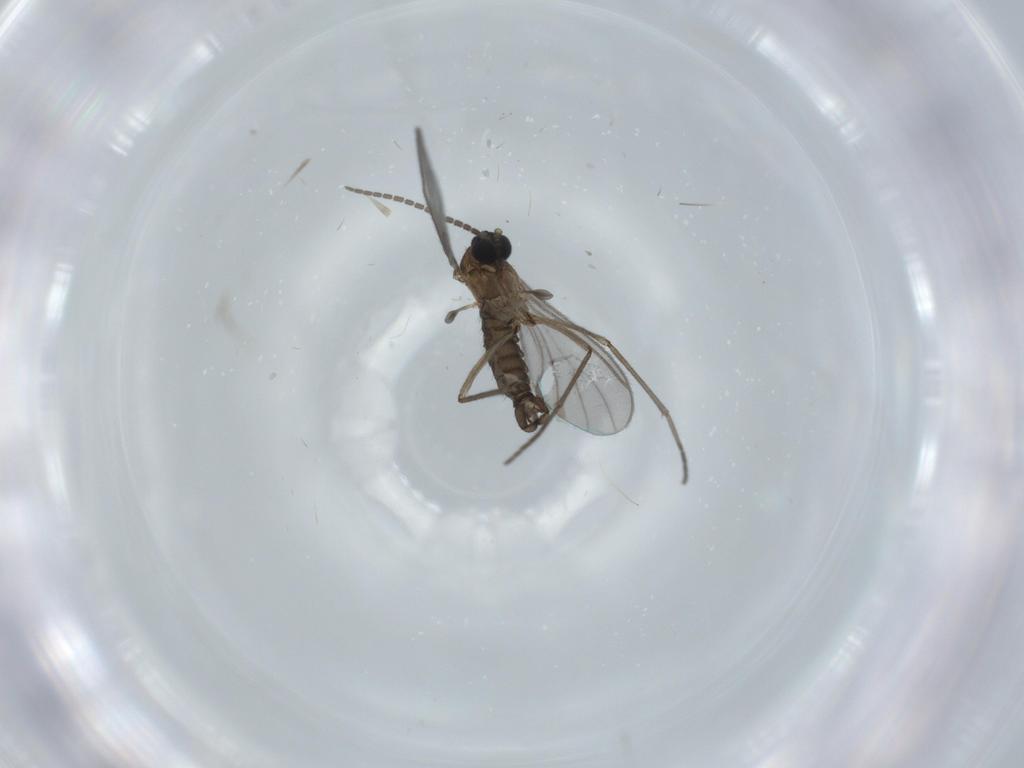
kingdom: Animalia
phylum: Arthropoda
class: Insecta
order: Diptera
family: Sciaridae
